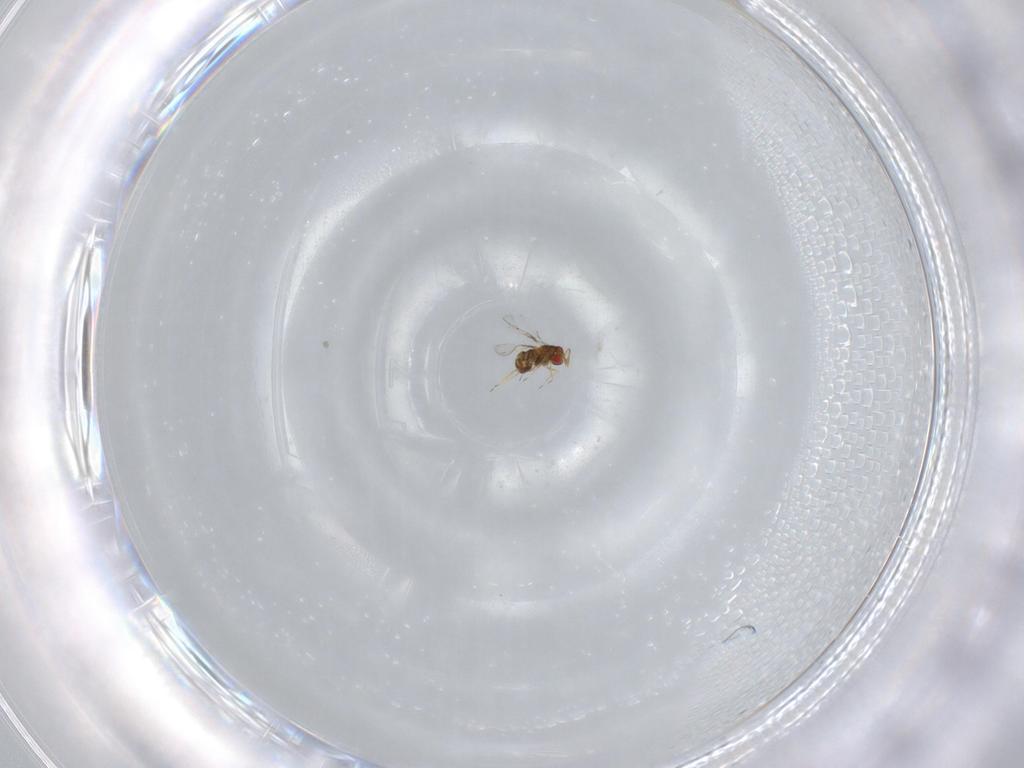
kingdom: Animalia
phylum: Arthropoda
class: Insecta
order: Hymenoptera
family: Trichogrammatidae
